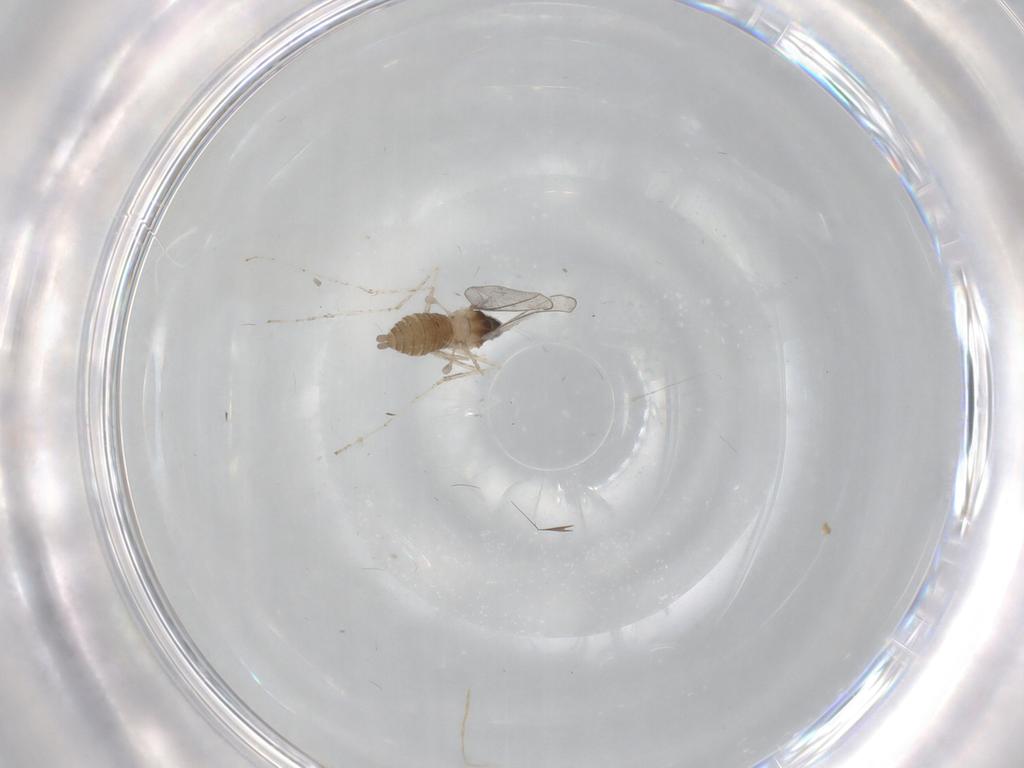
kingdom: Animalia
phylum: Arthropoda
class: Insecta
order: Diptera
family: Cecidomyiidae
